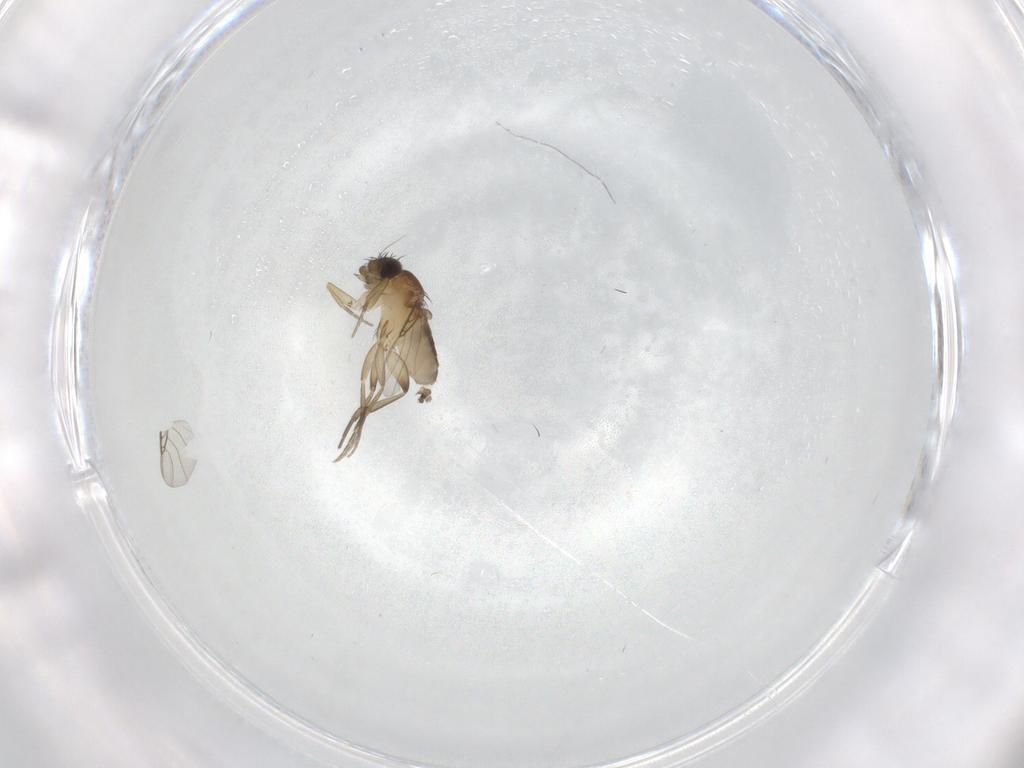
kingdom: Animalia
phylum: Arthropoda
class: Insecta
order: Diptera
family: Phoridae
